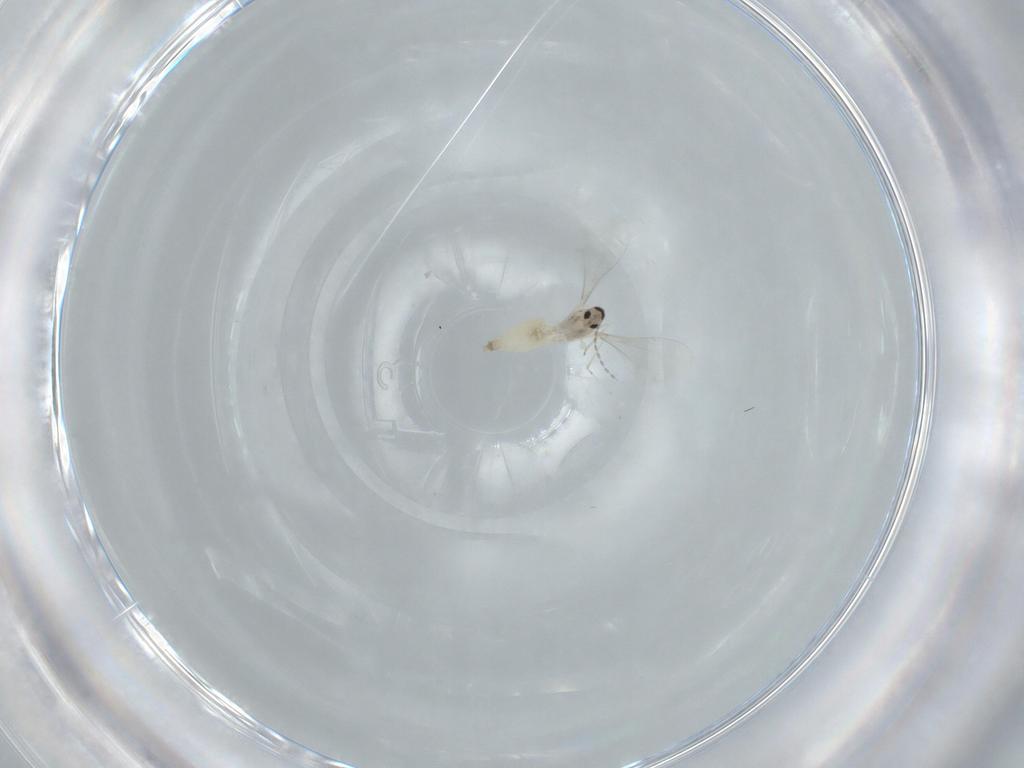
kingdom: Animalia
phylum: Arthropoda
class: Insecta
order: Diptera
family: Cecidomyiidae
